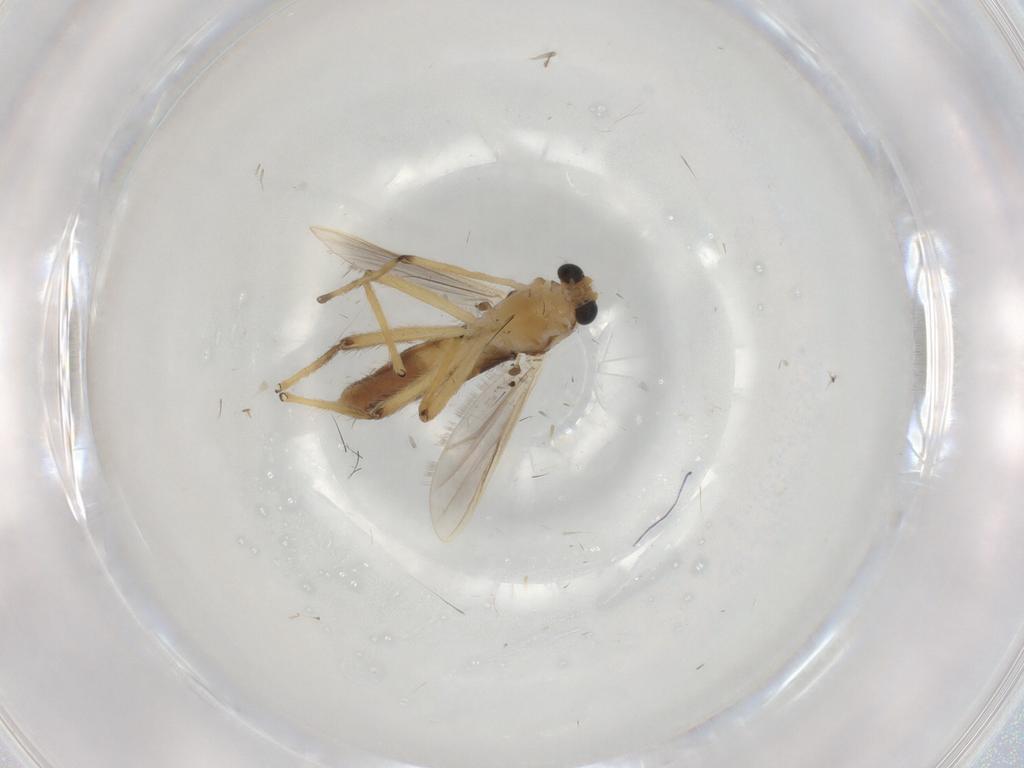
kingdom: Animalia
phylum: Arthropoda
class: Insecta
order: Diptera
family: Chironomidae
